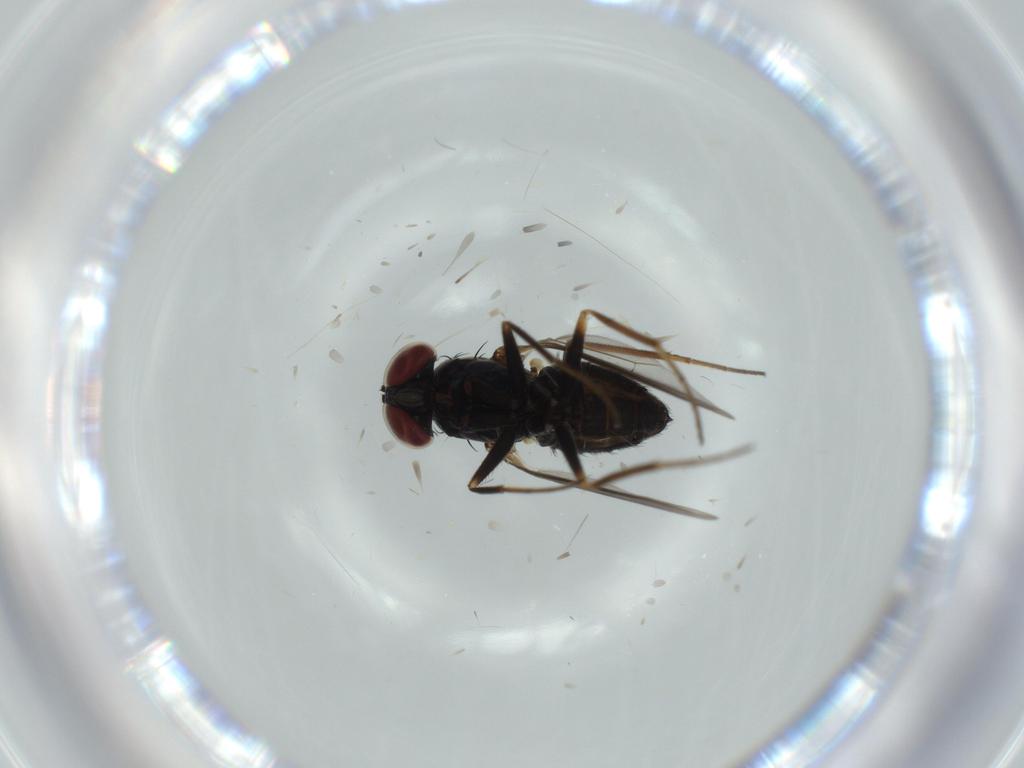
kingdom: Animalia
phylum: Arthropoda
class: Insecta
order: Diptera
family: Dolichopodidae
